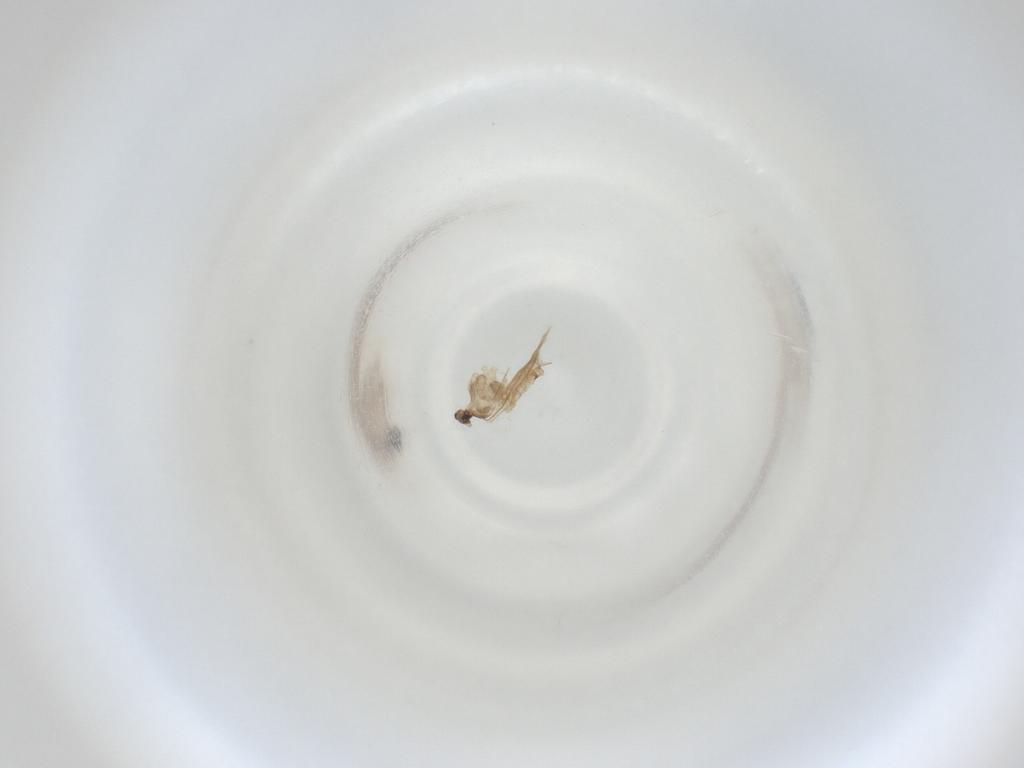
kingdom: Animalia
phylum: Arthropoda
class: Insecta
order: Diptera
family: Cecidomyiidae
